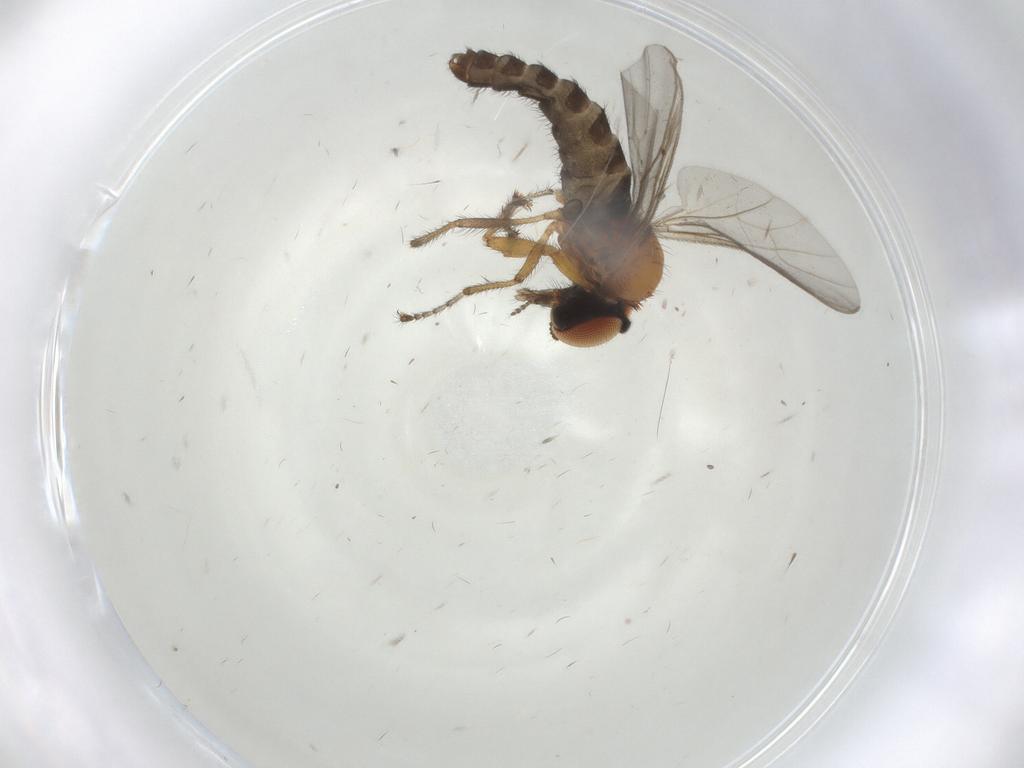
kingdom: Animalia
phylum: Arthropoda
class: Insecta
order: Diptera
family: Bibionidae
